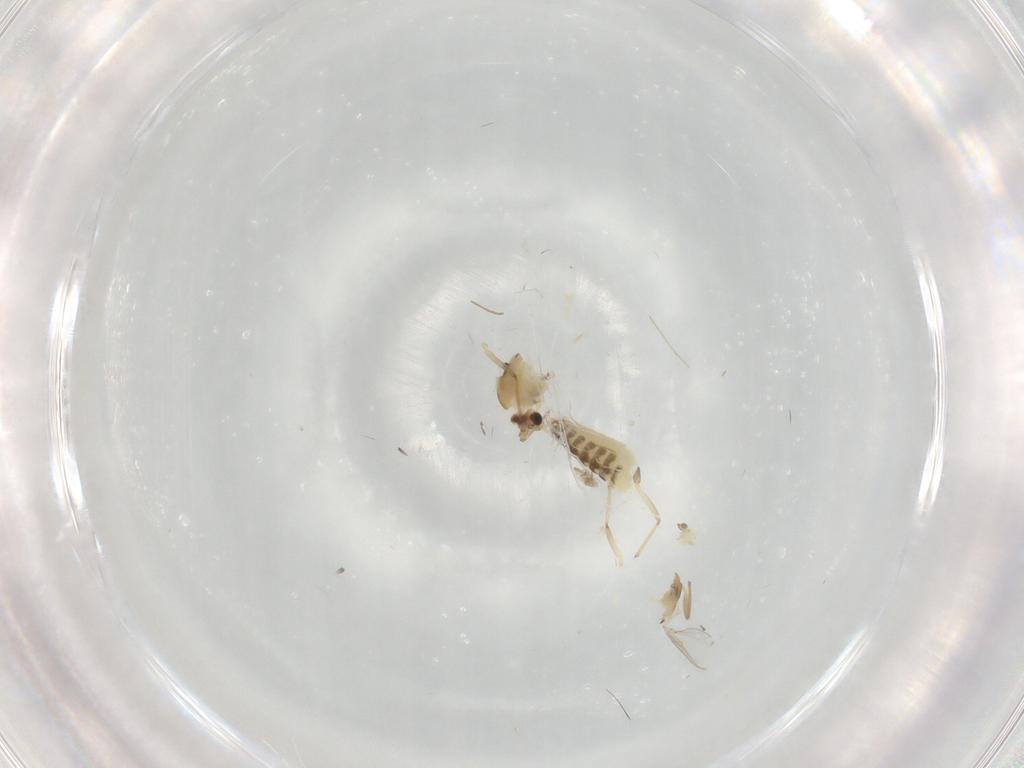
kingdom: Animalia
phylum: Arthropoda
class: Insecta
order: Diptera
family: Chironomidae
